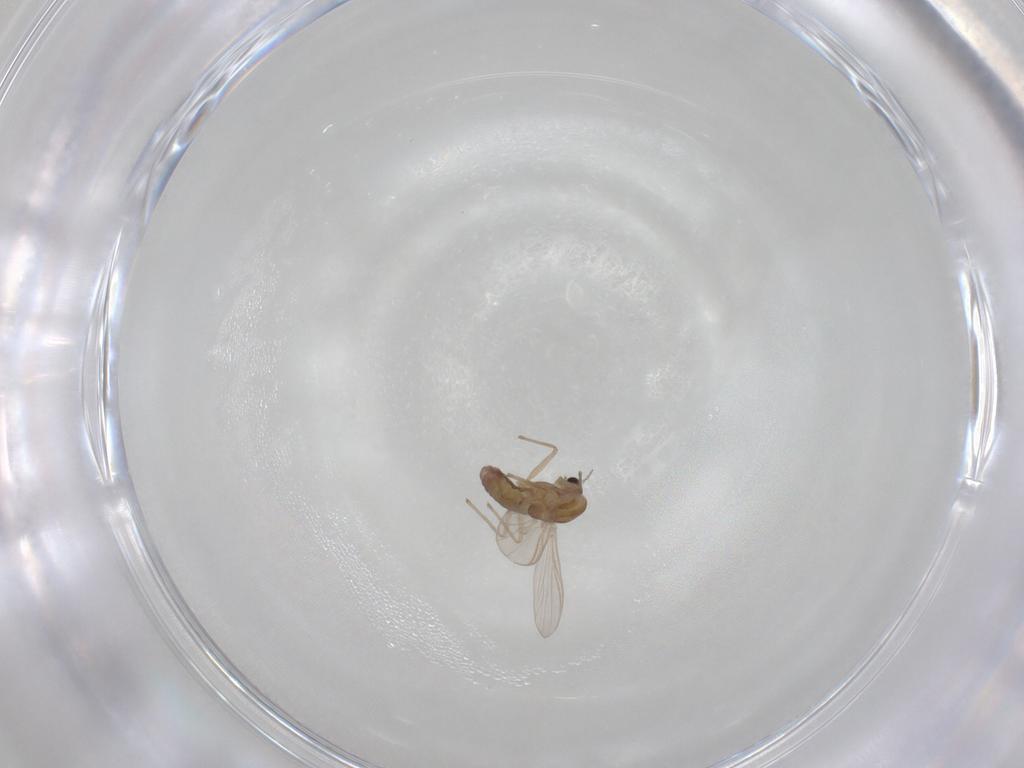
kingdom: Animalia
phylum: Arthropoda
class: Insecta
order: Diptera
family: Chironomidae
